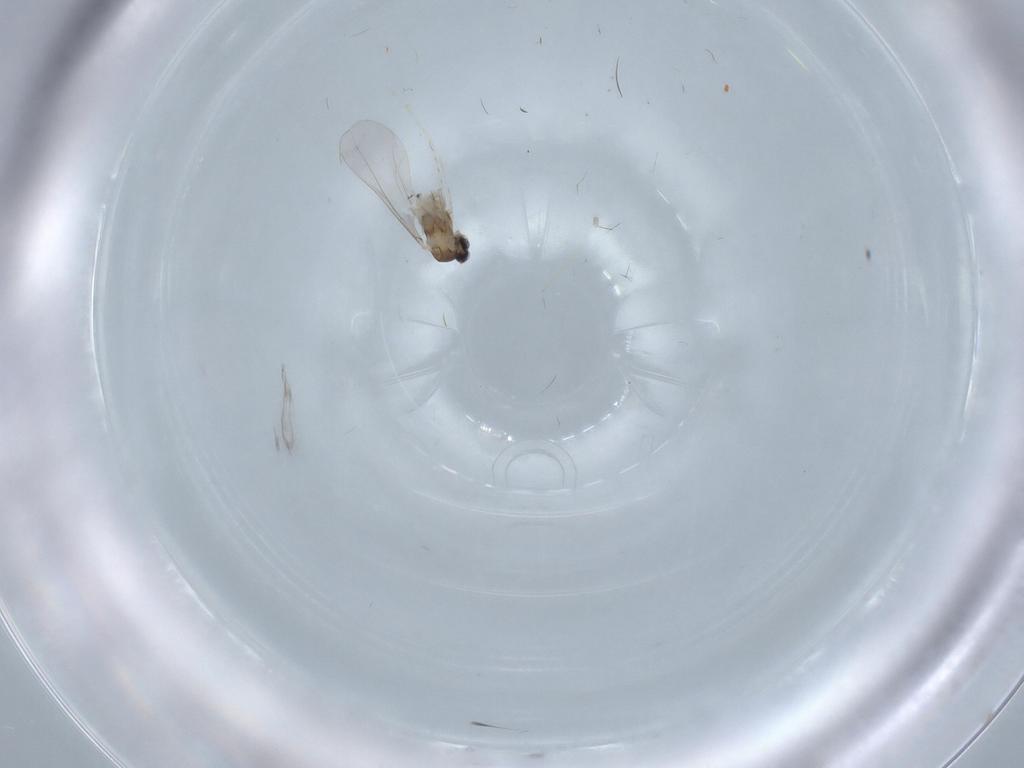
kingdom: Animalia
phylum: Arthropoda
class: Insecta
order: Diptera
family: Cecidomyiidae
